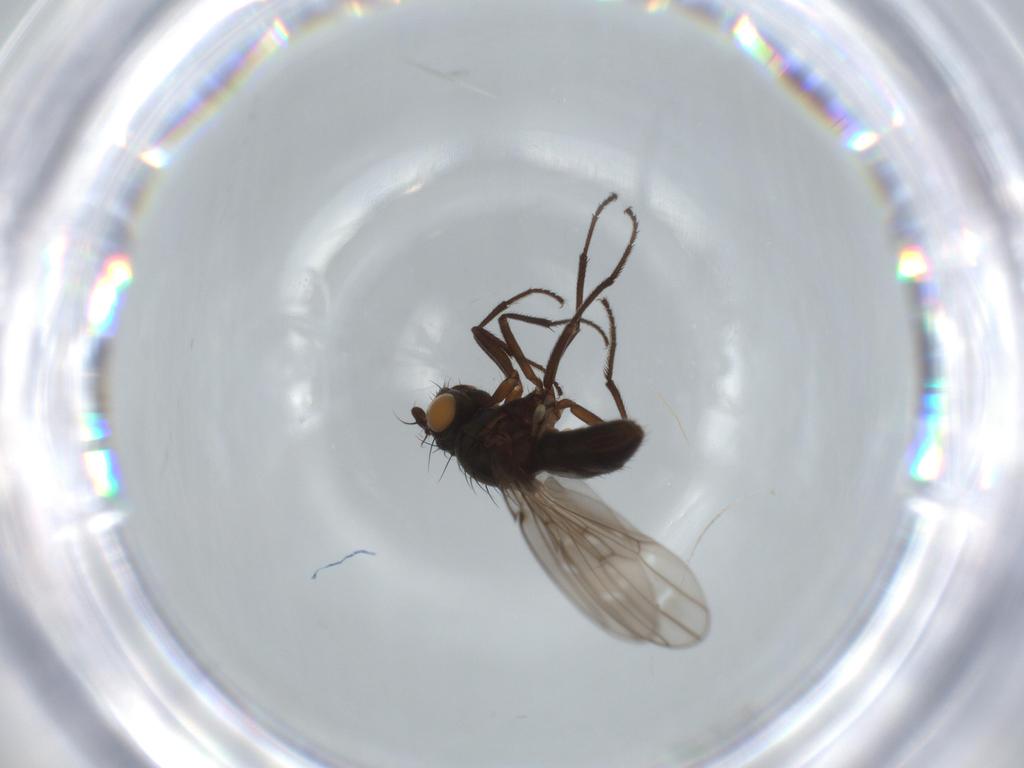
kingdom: Animalia
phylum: Arthropoda
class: Insecta
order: Diptera
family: Ephydridae
